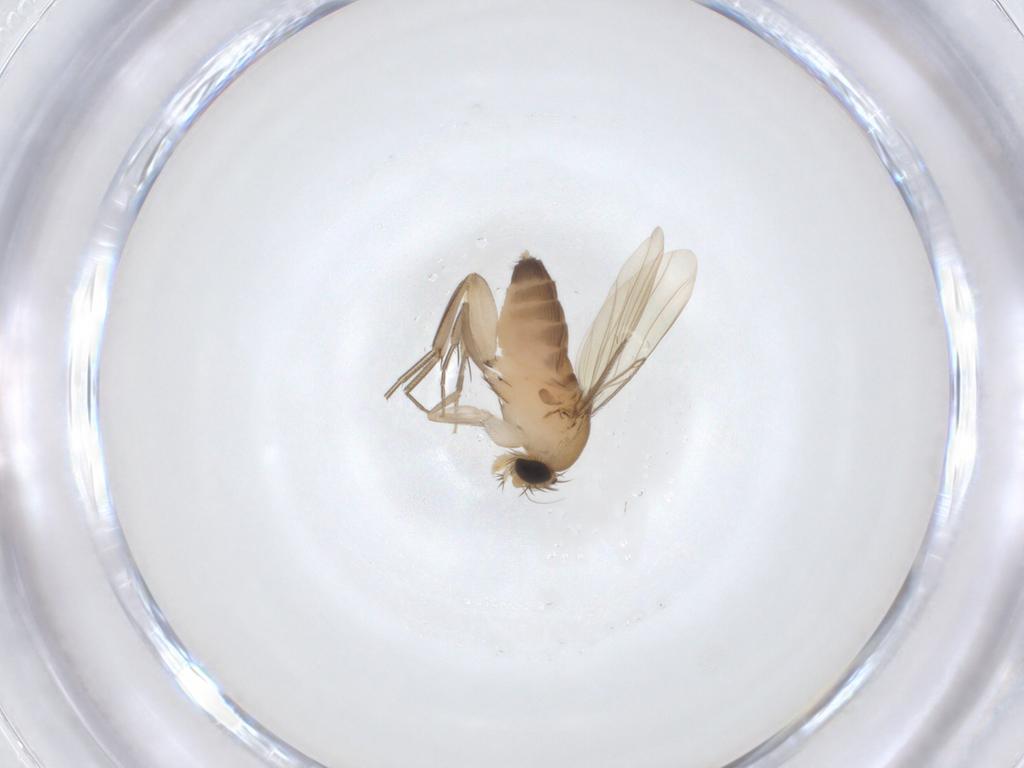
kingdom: Animalia
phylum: Arthropoda
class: Insecta
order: Diptera
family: Phoridae
